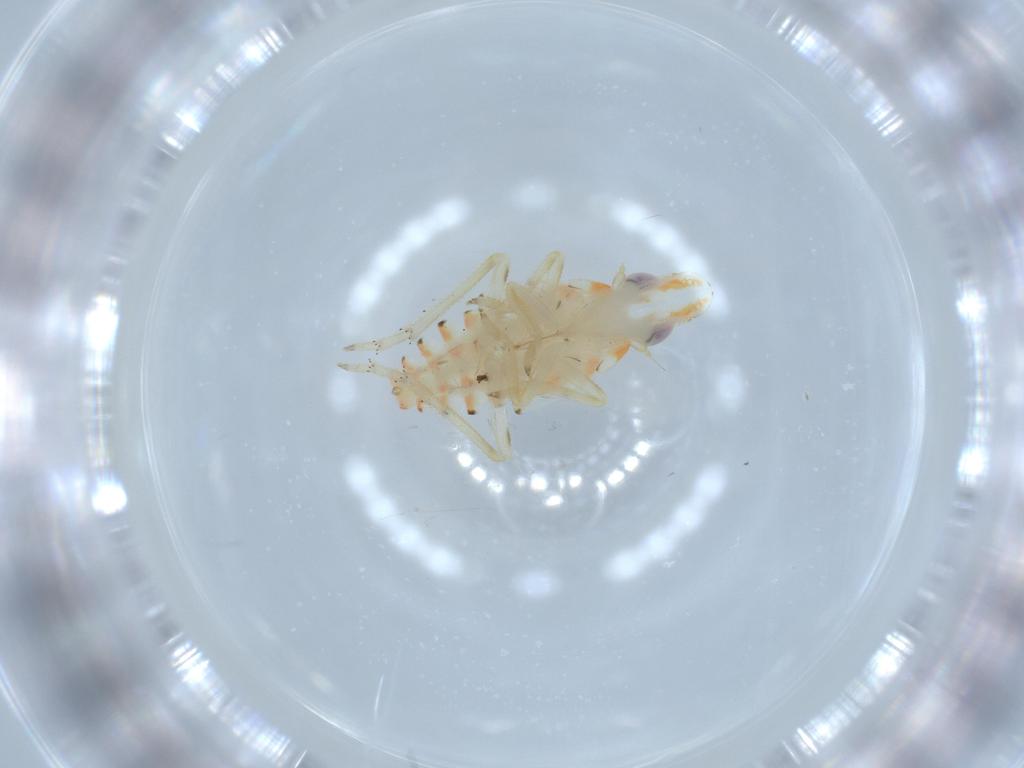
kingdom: Animalia
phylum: Arthropoda
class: Insecta
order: Hemiptera
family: Tropiduchidae
